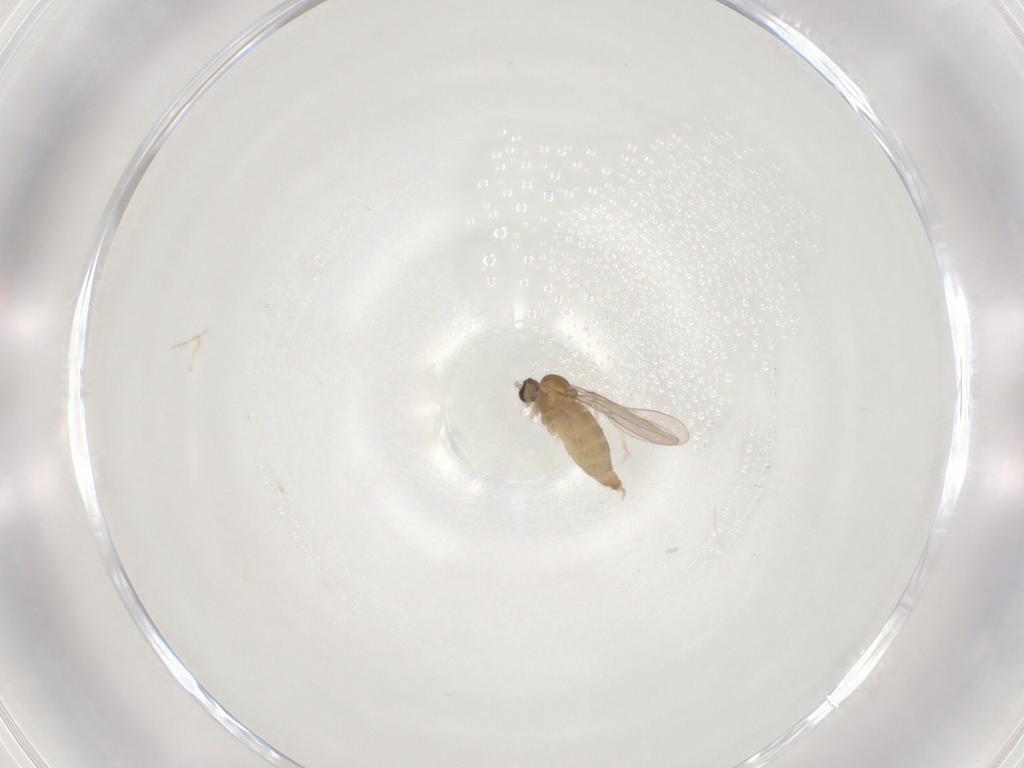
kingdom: Animalia
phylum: Arthropoda
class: Insecta
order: Diptera
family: Cecidomyiidae
